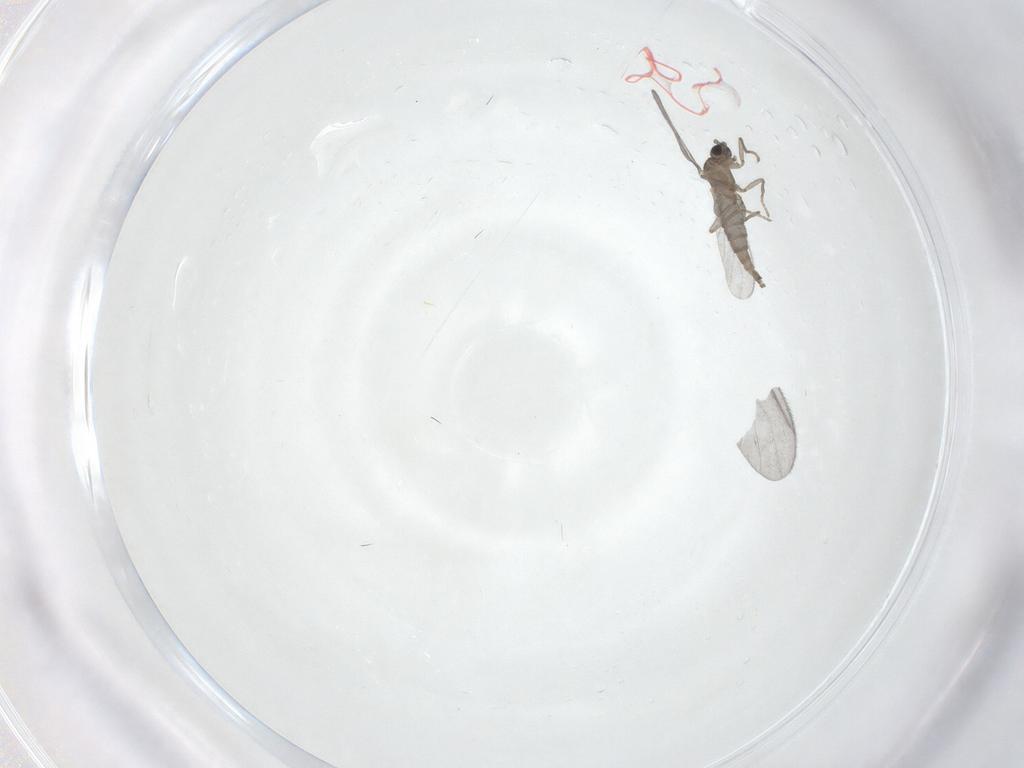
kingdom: Animalia
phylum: Arthropoda
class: Insecta
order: Diptera
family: Sciaridae
